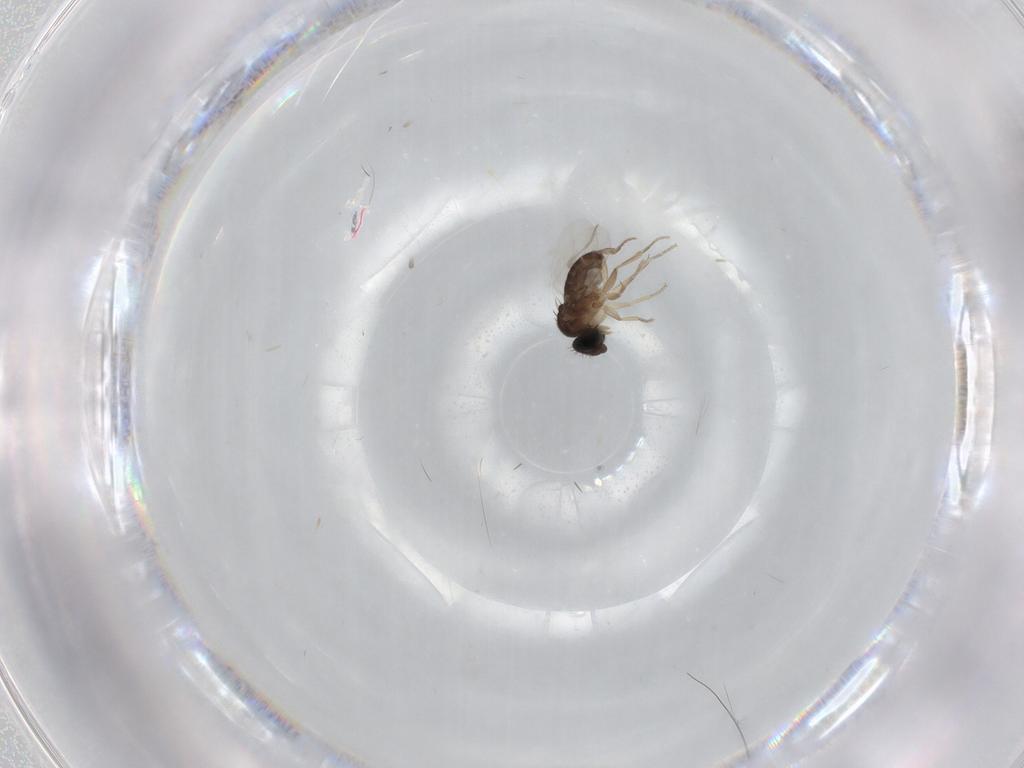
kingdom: Animalia
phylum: Arthropoda
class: Insecta
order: Diptera
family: Phoridae
